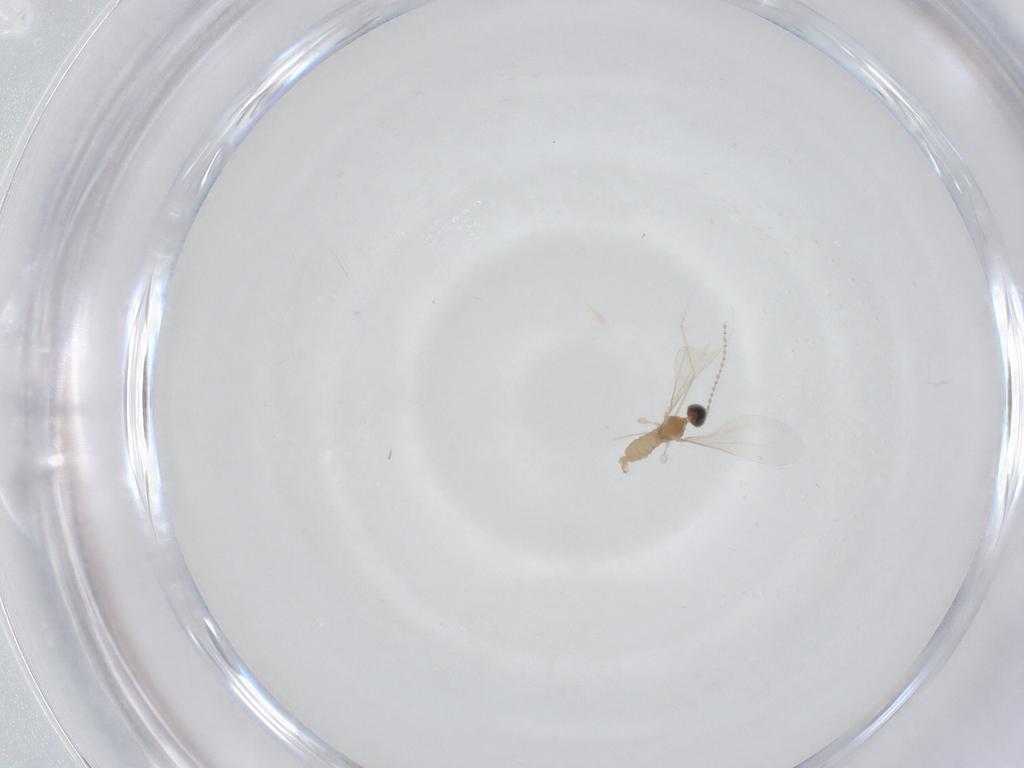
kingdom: Animalia
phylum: Arthropoda
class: Insecta
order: Diptera
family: Cecidomyiidae
